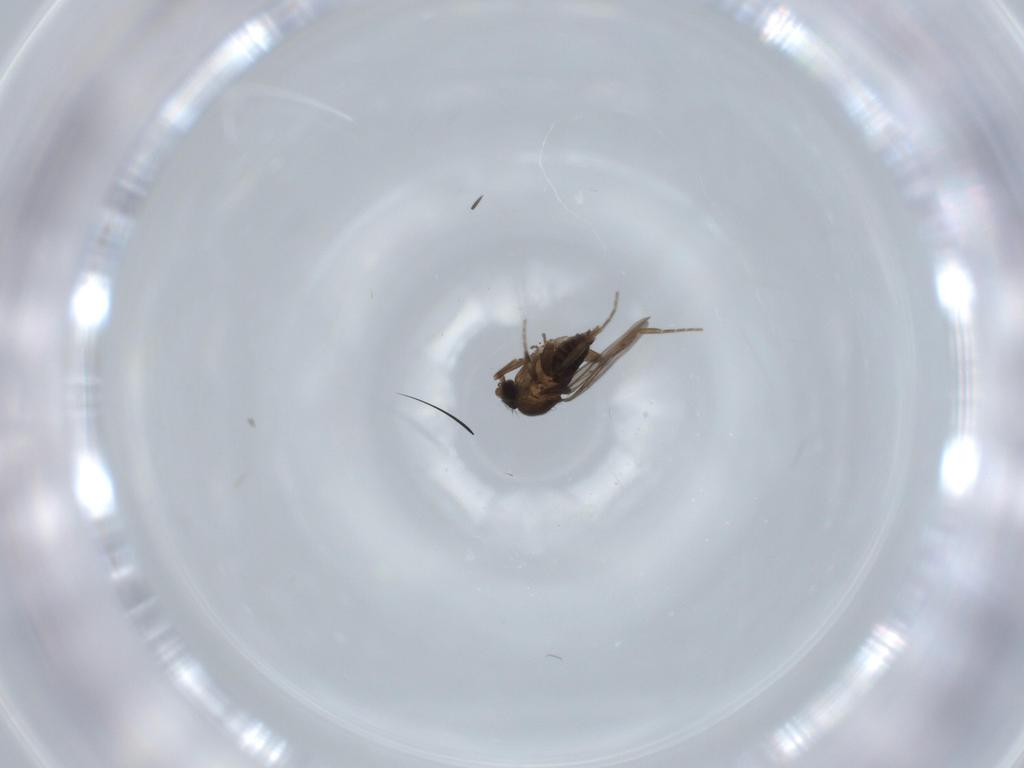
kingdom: Animalia
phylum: Arthropoda
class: Insecta
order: Diptera
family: Phoridae
